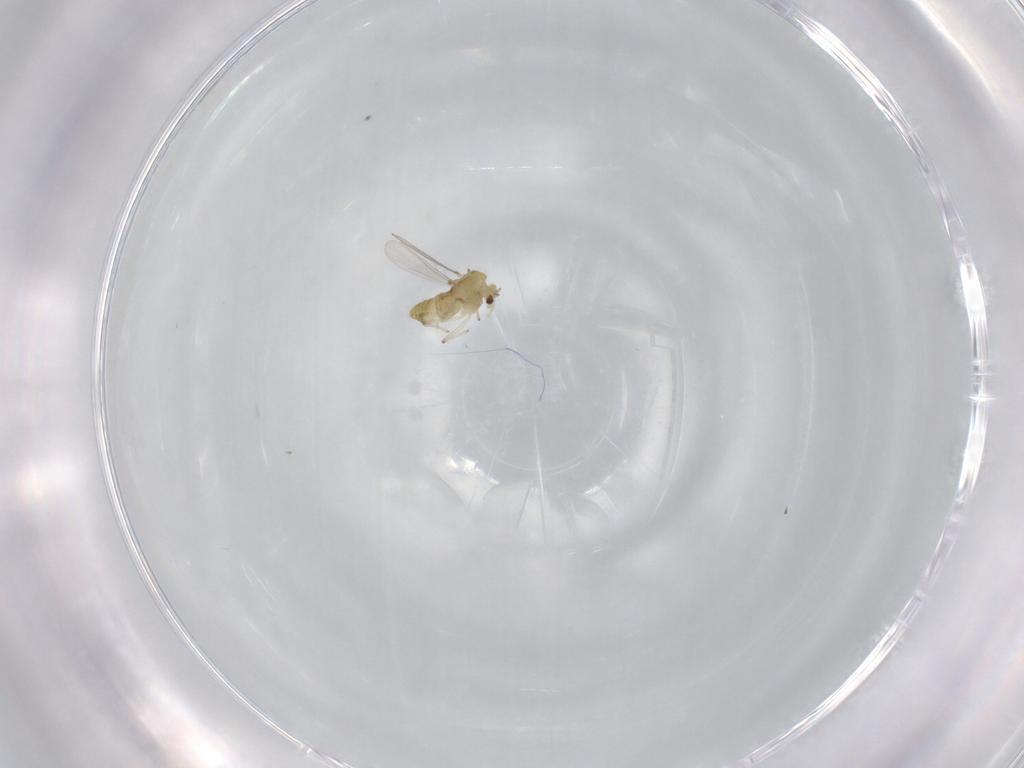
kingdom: Animalia
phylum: Arthropoda
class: Insecta
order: Diptera
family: Chironomidae
